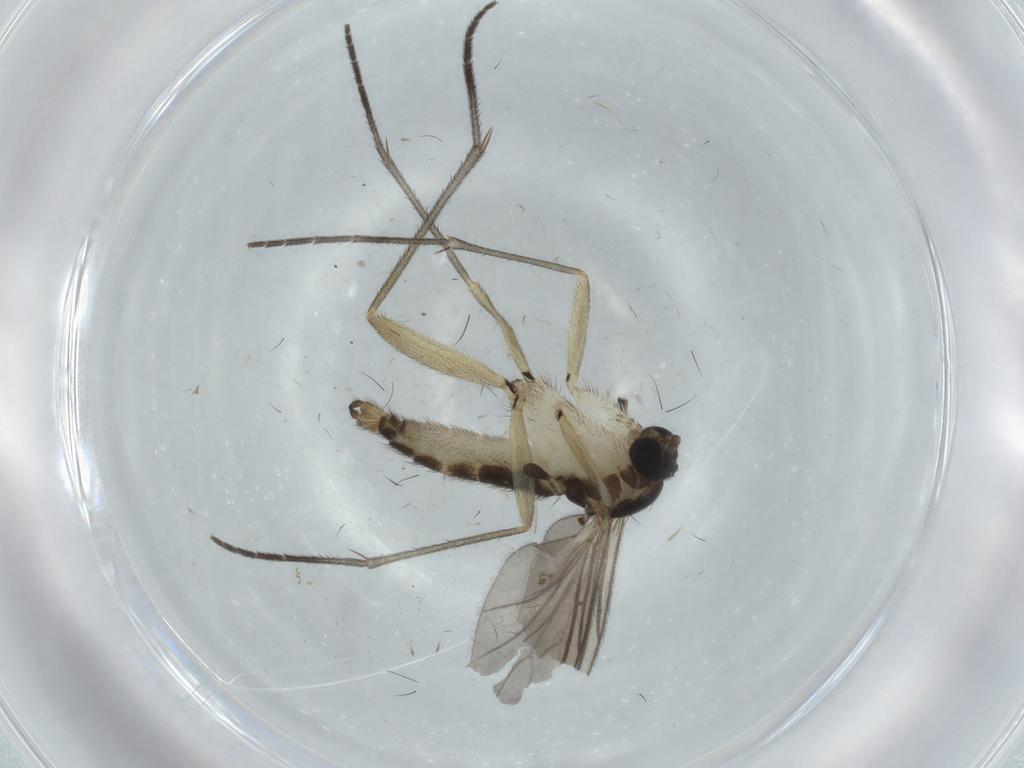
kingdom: Animalia
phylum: Arthropoda
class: Insecta
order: Diptera
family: Sciaridae
